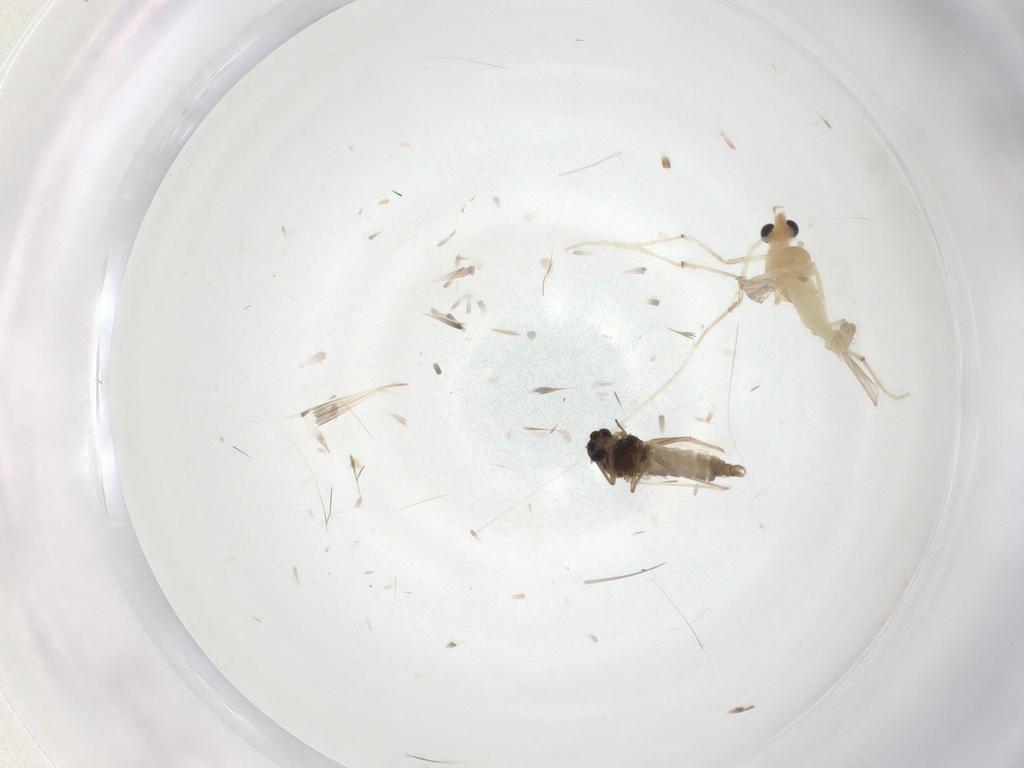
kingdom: Animalia
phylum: Arthropoda
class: Insecta
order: Diptera
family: Chironomidae
